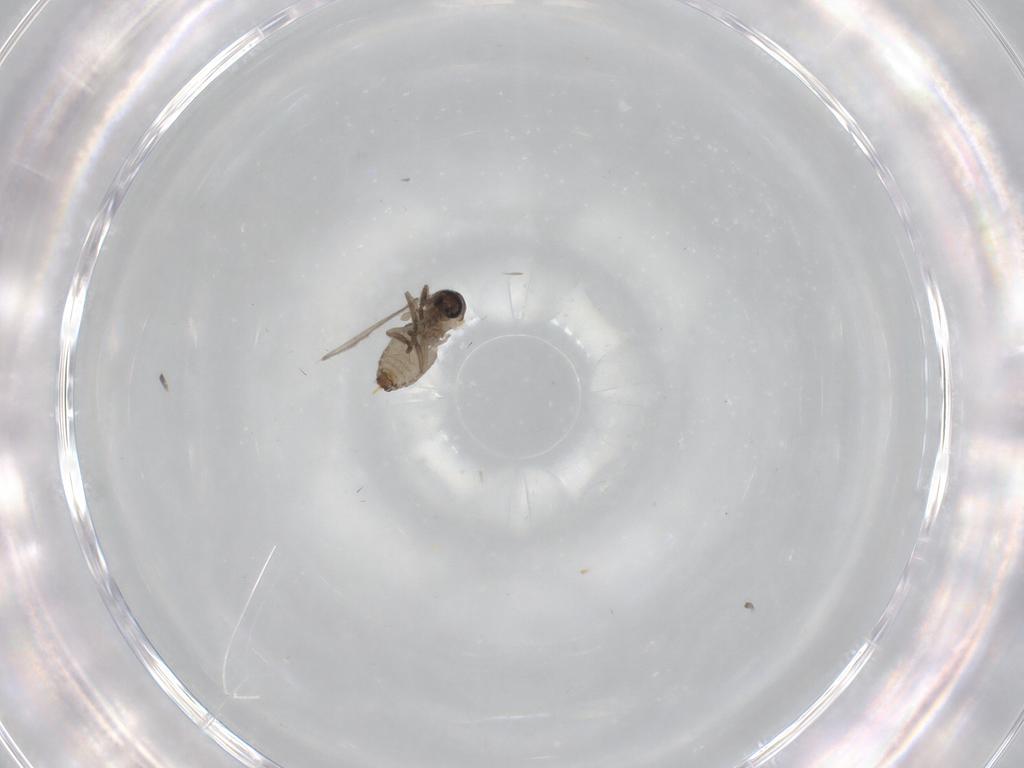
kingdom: Animalia
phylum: Arthropoda
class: Insecta
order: Diptera
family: Psychodidae
